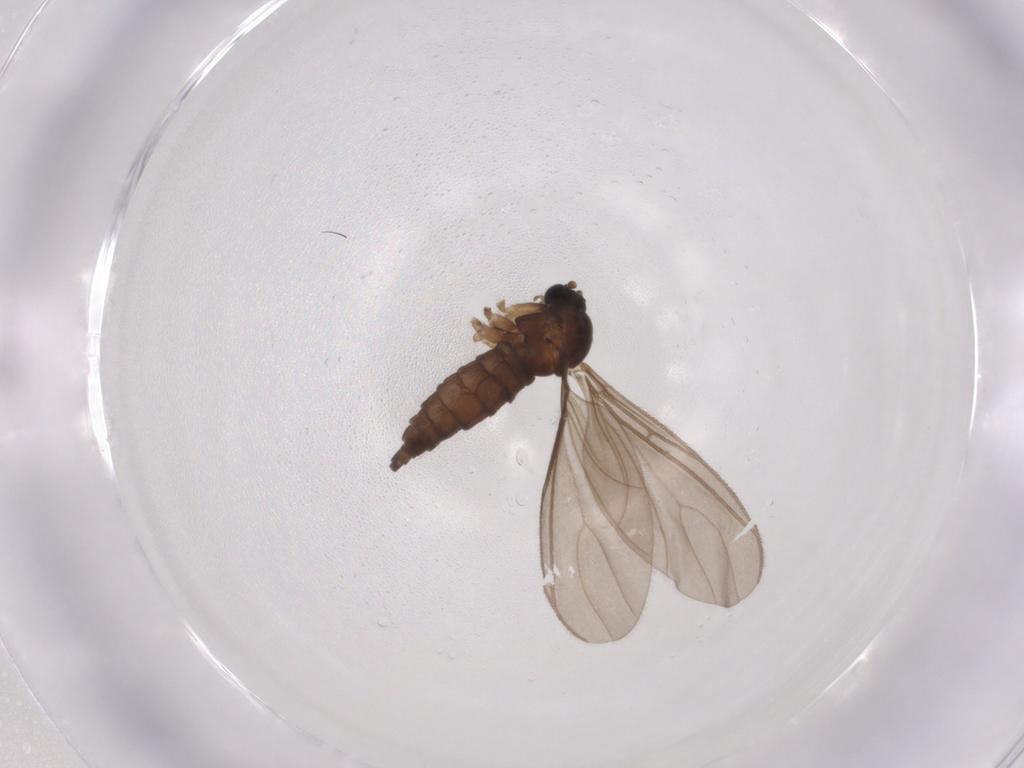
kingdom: Animalia
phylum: Arthropoda
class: Insecta
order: Diptera
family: Sciaridae
